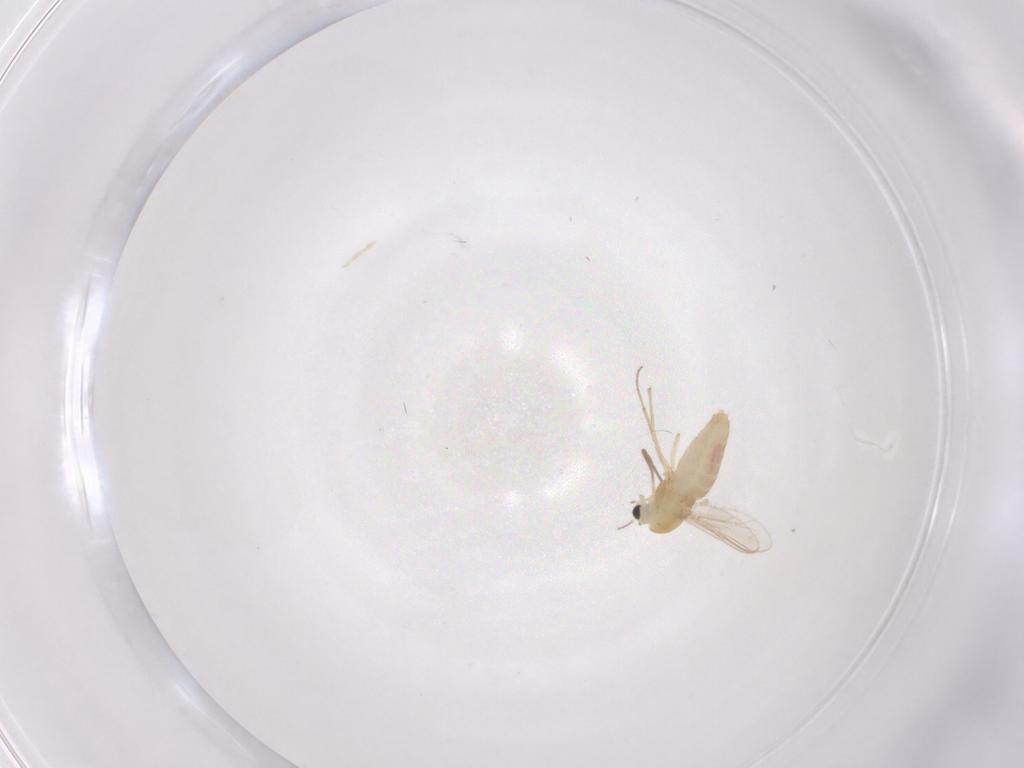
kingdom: Animalia
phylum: Arthropoda
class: Insecta
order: Diptera
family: Chironomidae
